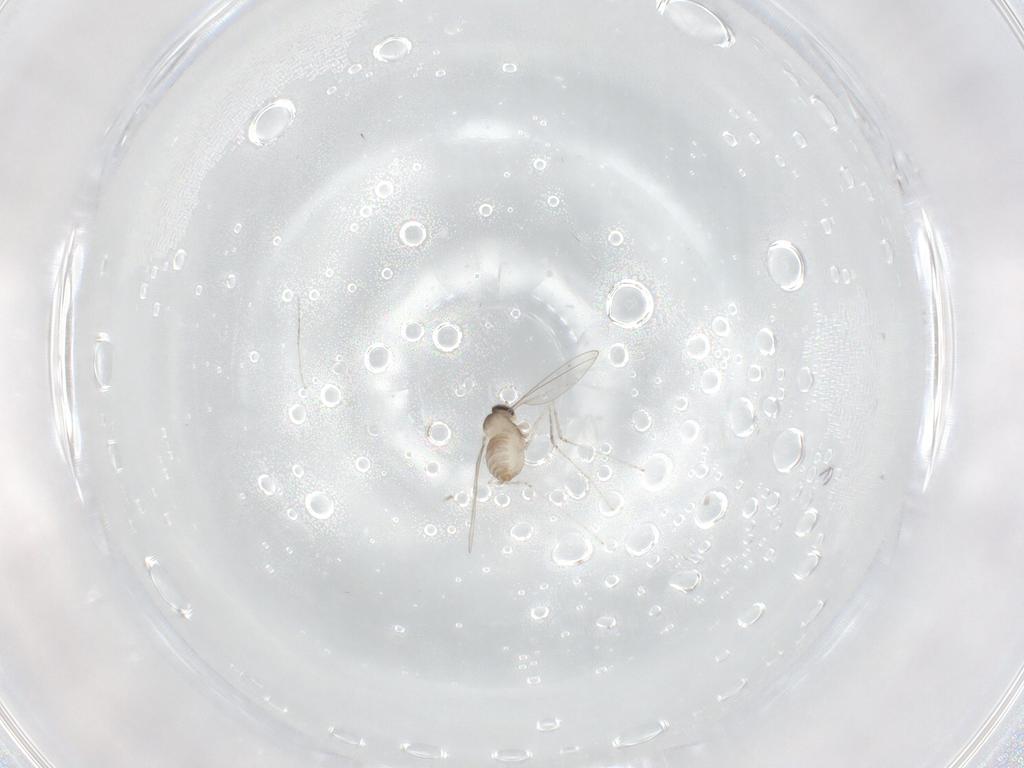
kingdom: Animalia
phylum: Arthropoda
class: Insecta
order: Diptera
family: Cecidomyiidae
